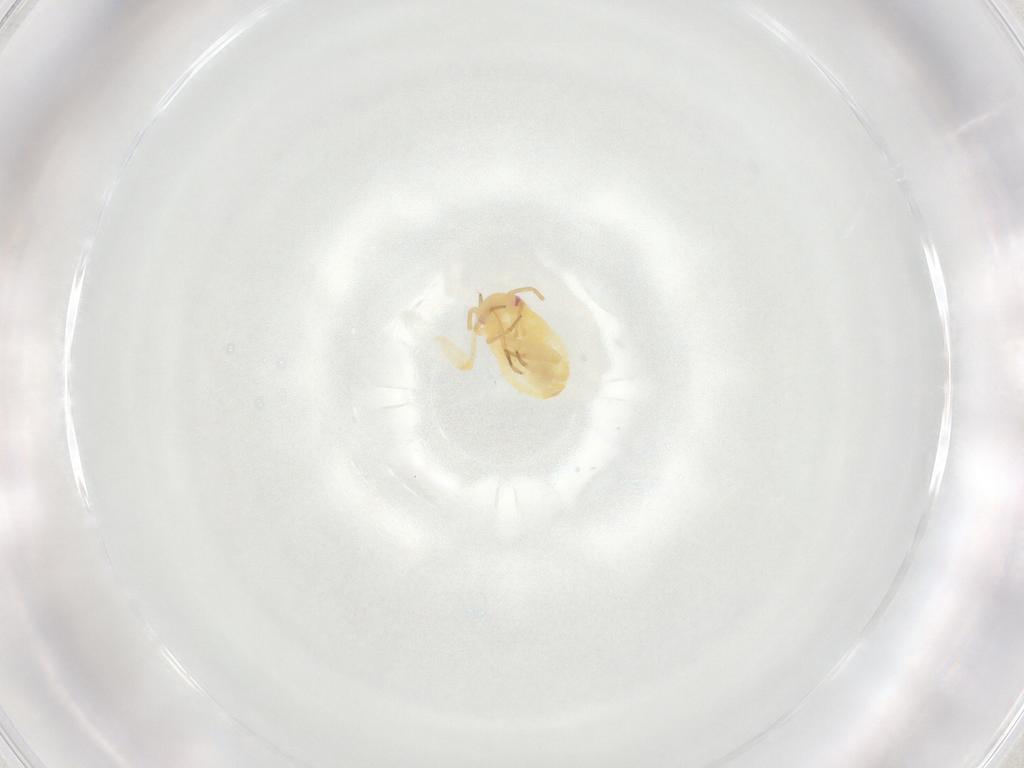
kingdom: Animalia
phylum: Arthropoda
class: Insecta
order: Hemiptera
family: Miridae
